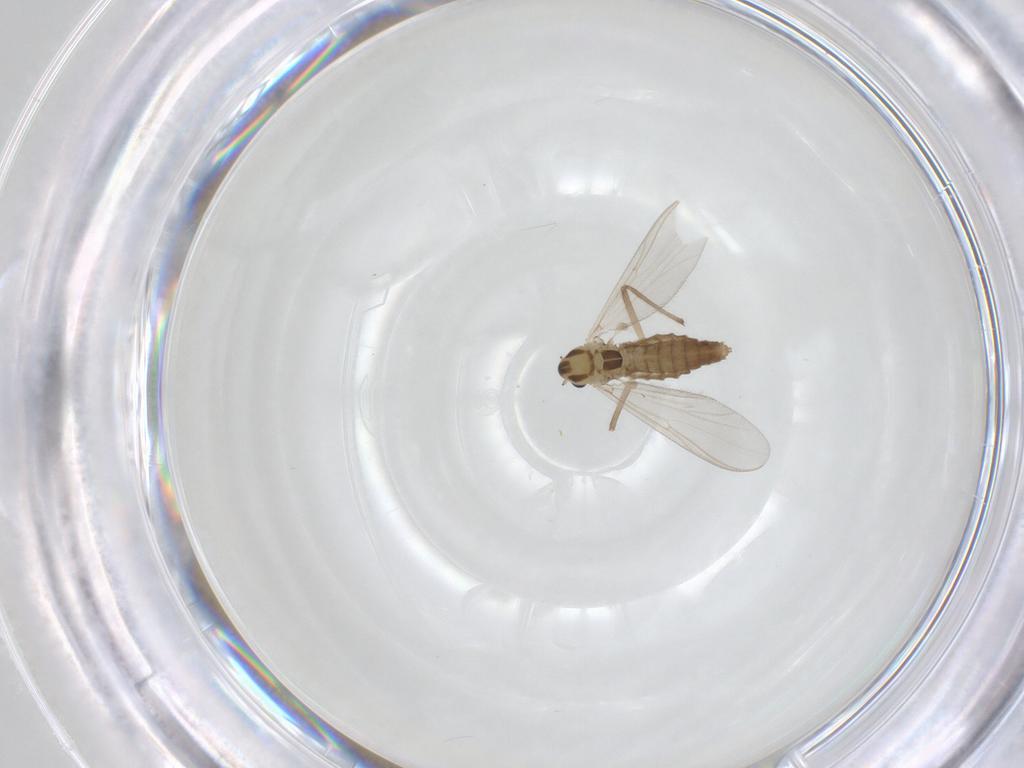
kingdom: Animalia
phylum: Arthropoda
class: Insecta
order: Diptera
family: Chironomidae
